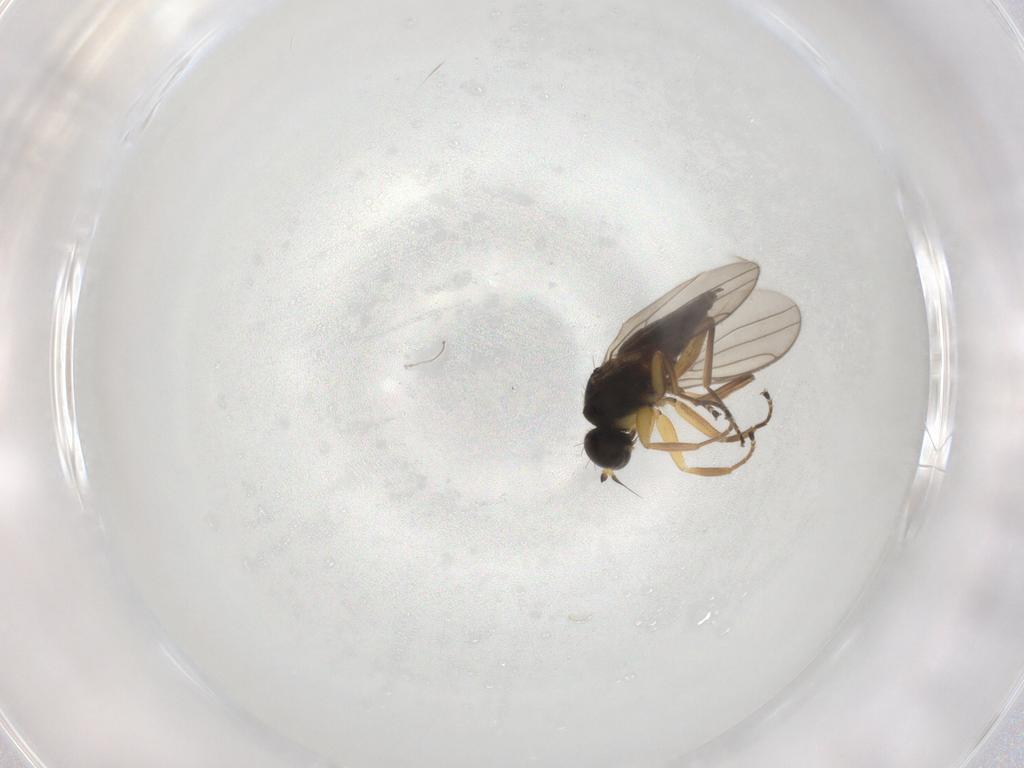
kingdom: Animalia
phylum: Arthropoda
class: Insecta
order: Diptera
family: Hybotidae
